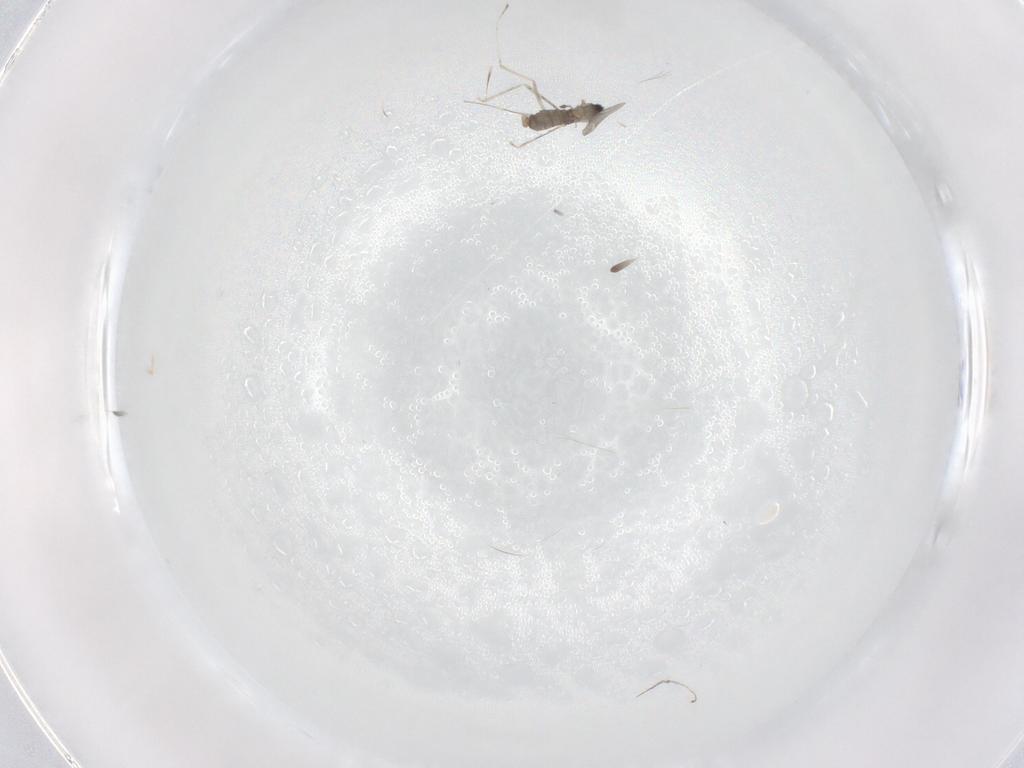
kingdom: Animalia
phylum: Arthropoda
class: Insecta
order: Diptera
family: Cecidomyiidae
